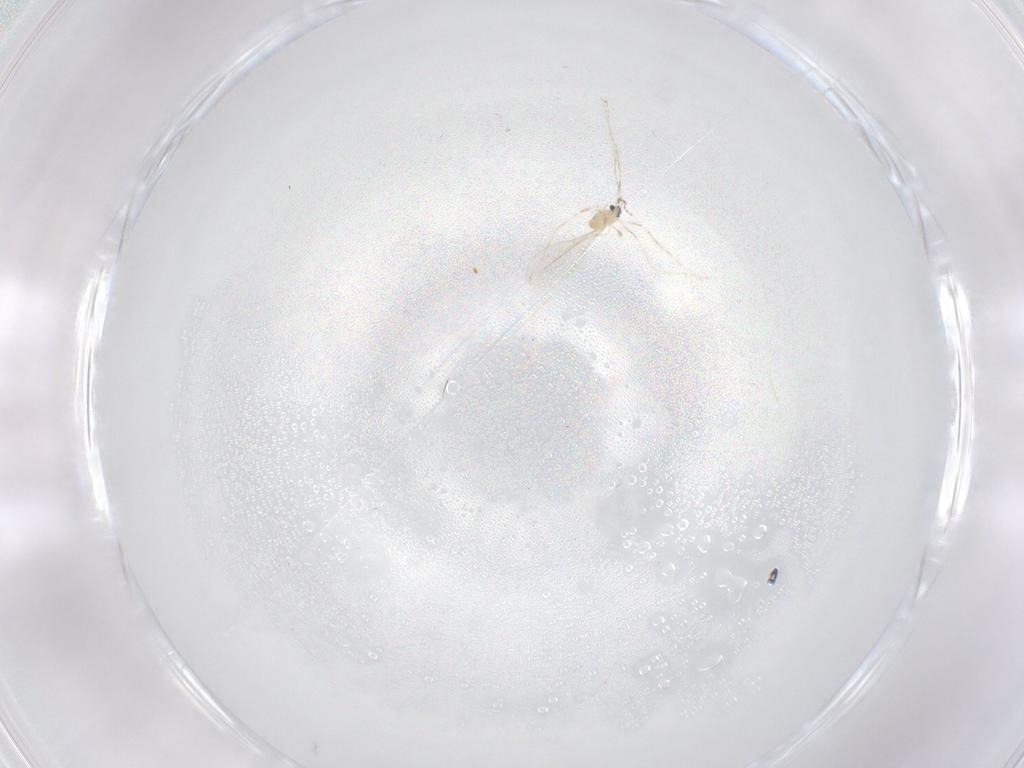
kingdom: Animalia
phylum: Arthropoda
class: Insecta
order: Diptera
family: Cecidomyiidae
